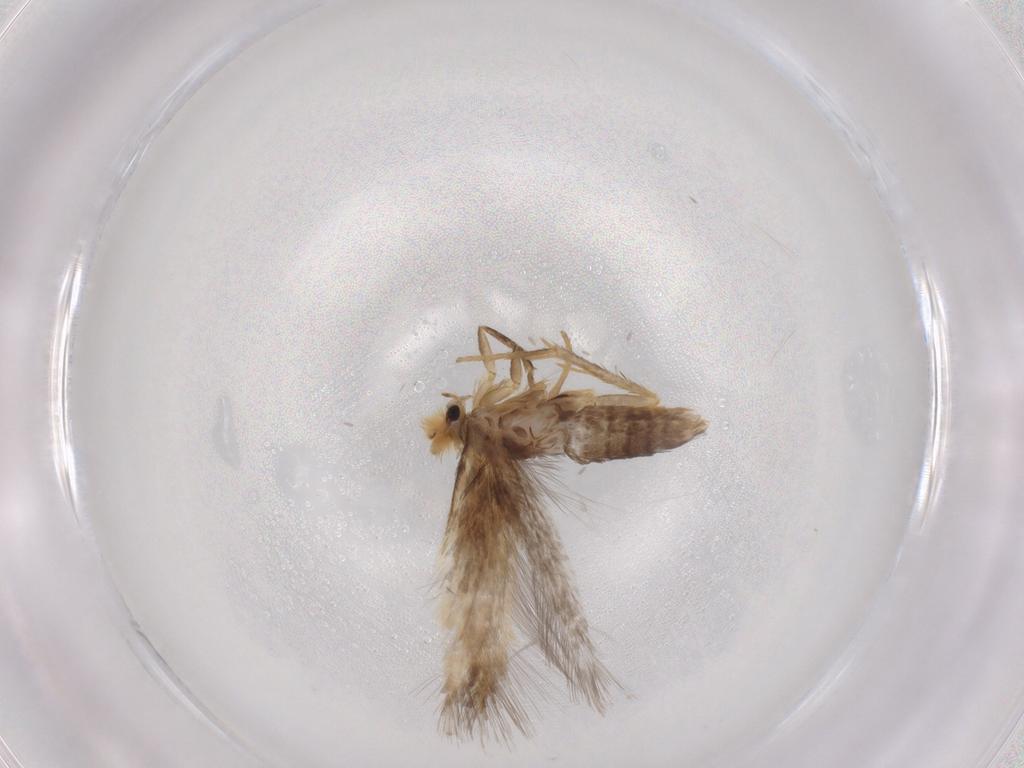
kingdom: Animalia
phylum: Arthropoda
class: Insecta
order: Lepidoptera
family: Nepticulidae
